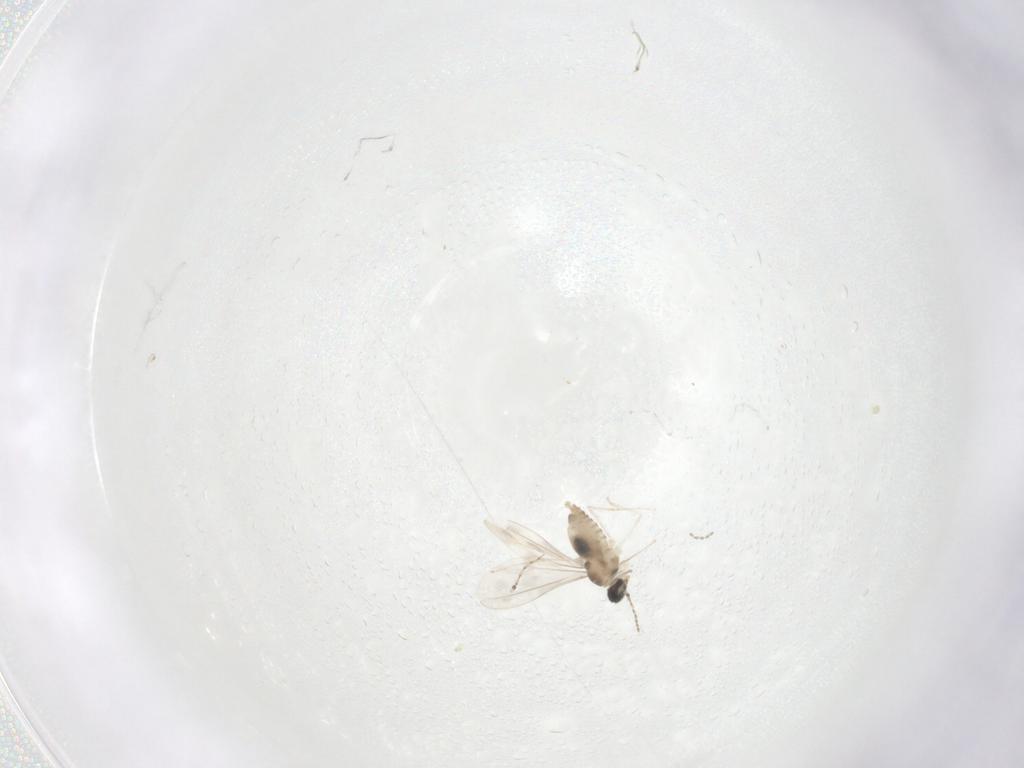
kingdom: Animalia
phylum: Arthropoda
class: Insecta
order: Diptera
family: Cecidomyiidae
